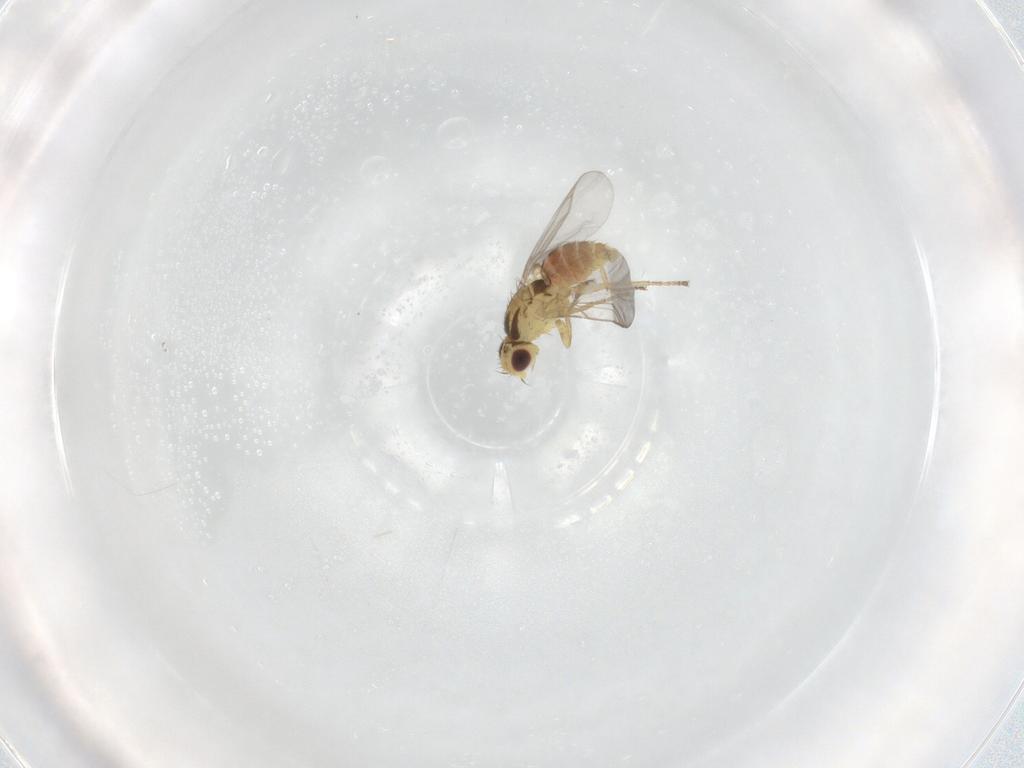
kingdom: Animalia
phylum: Arthropoda
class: Insecta
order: Diptera
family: Agromyzidae
